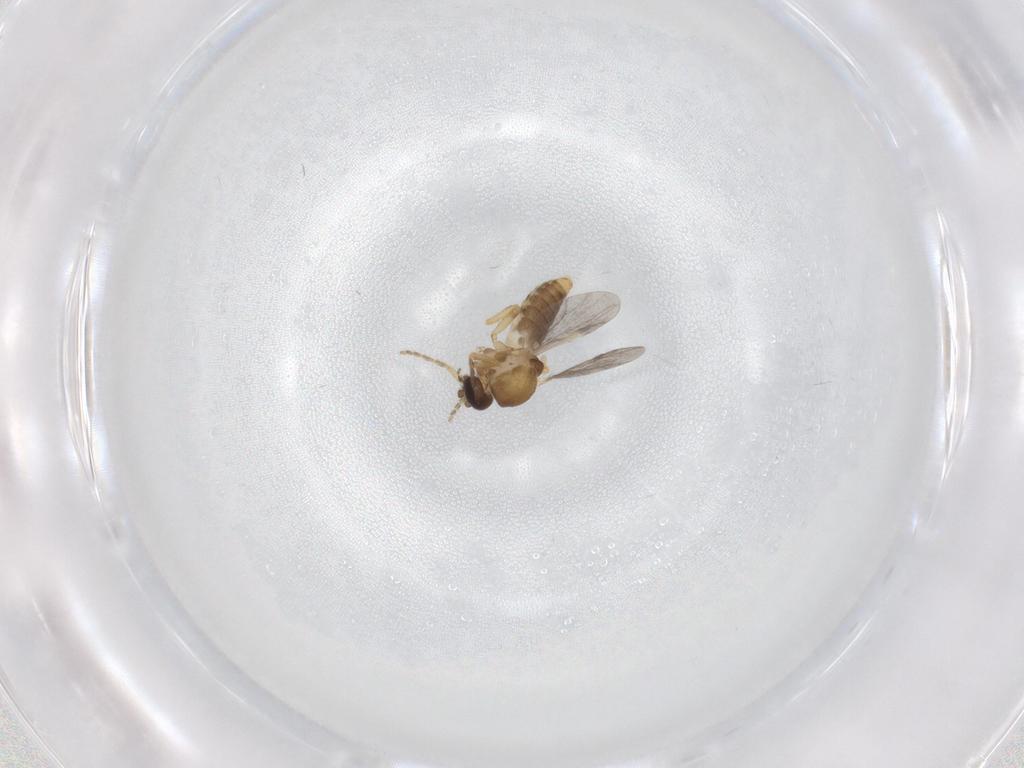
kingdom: Animalia
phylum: Arthropoda
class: Insecta
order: Diptera
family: Ceratopogonidae
